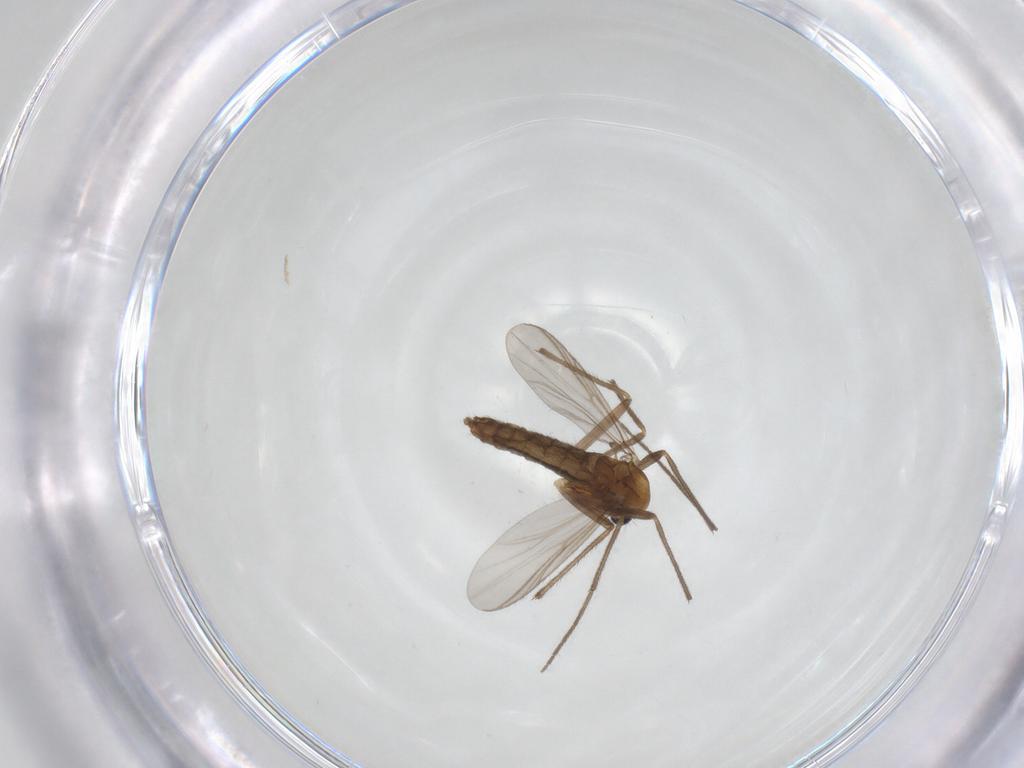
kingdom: Animalia
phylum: Arthropoda
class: Insecta
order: Diptera
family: Chironomidae
